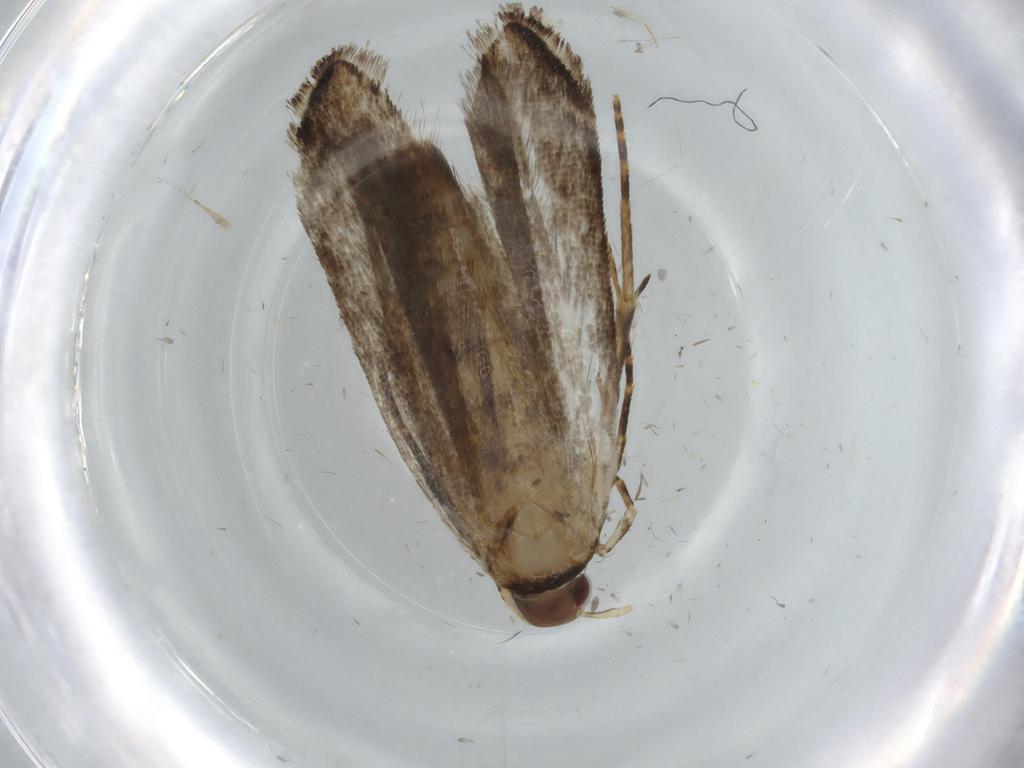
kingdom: Animalia
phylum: Arthropoda
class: Insecta
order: Lepidoptera
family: Gelechiidae
